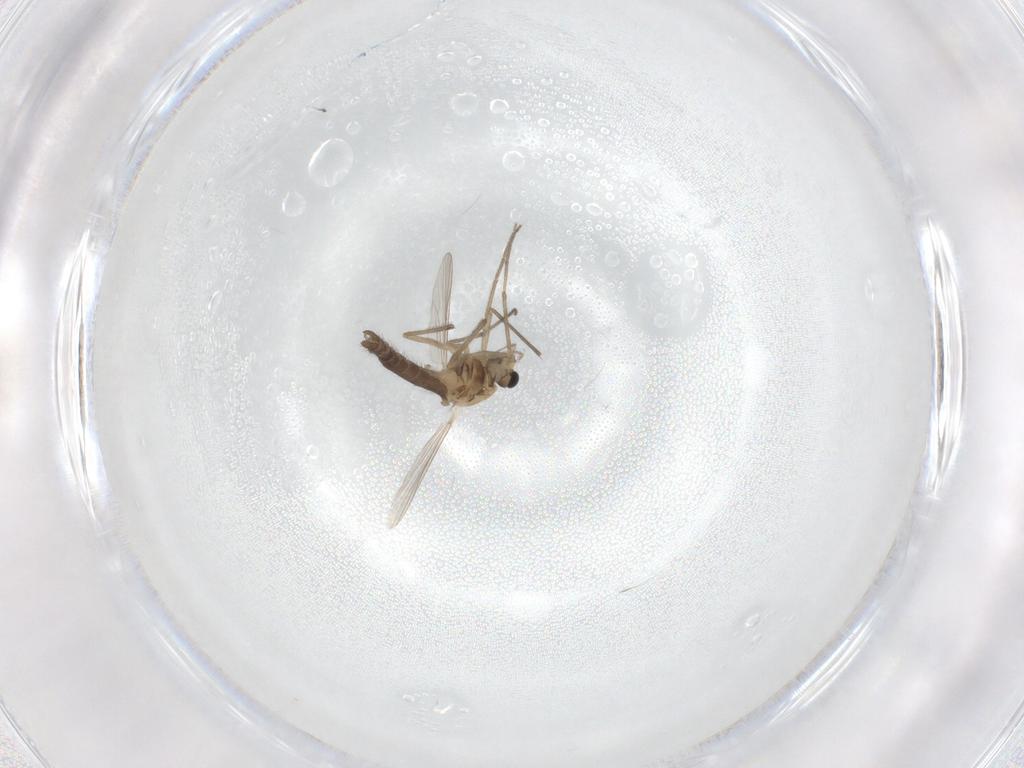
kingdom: Animalia
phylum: Arthropoda
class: Insecta
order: Diptera
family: Chironomidae
